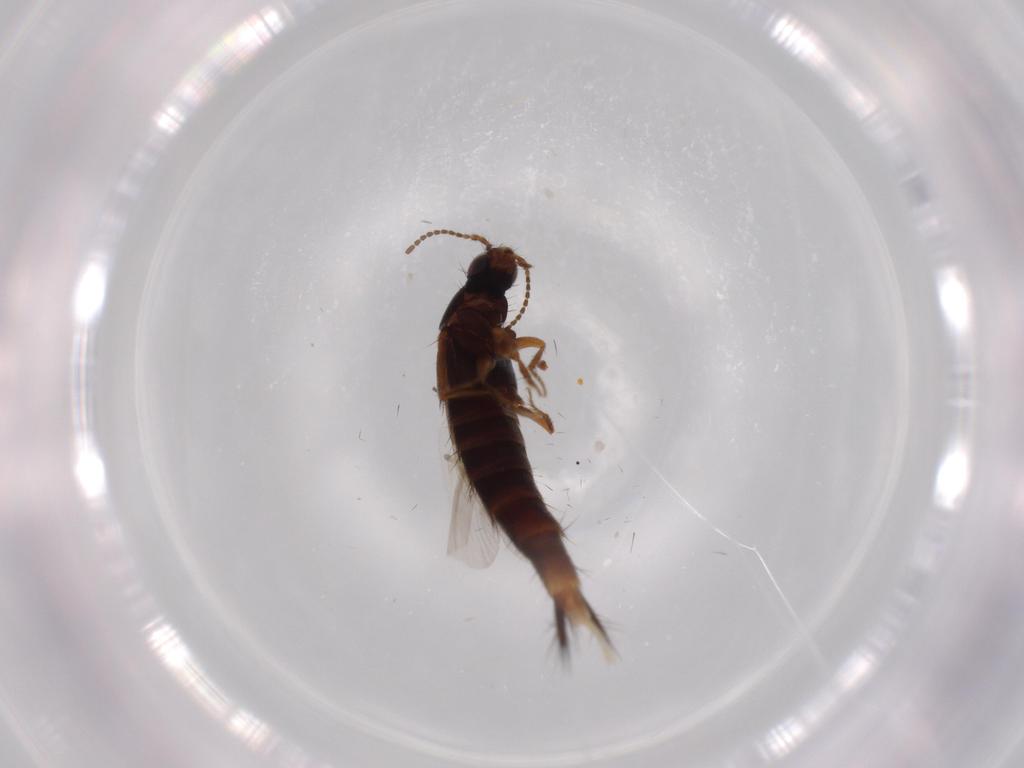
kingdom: Animalia
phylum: Arthropoda
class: Insecta
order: Coleoptera
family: Staphylinidae
